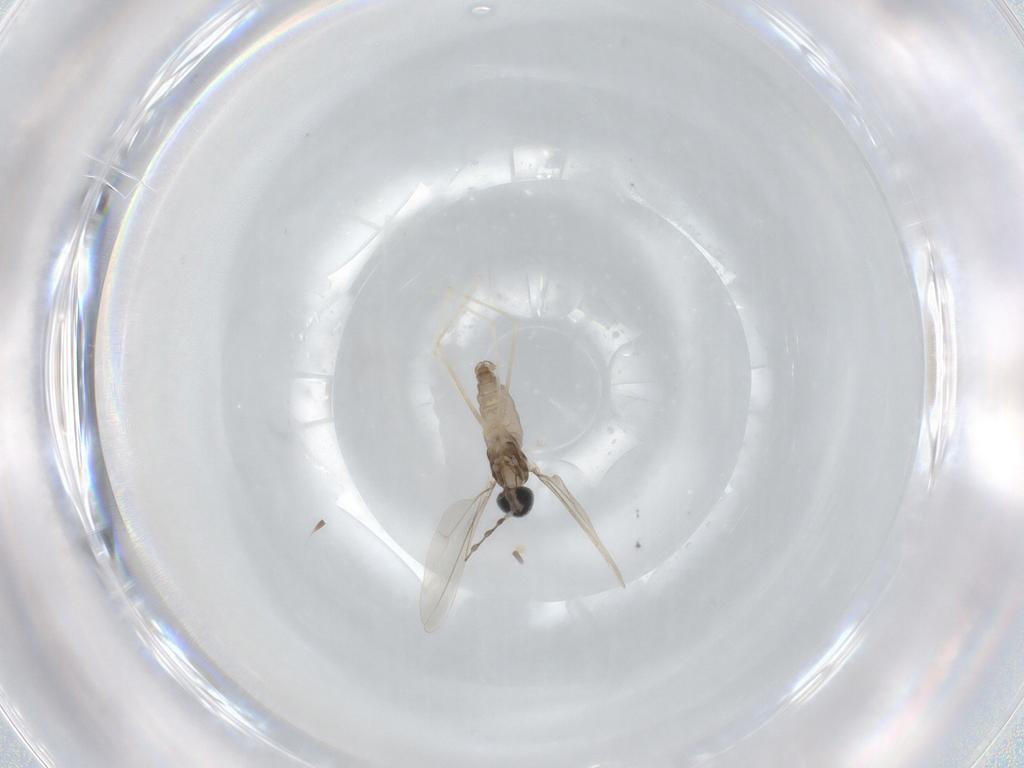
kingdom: Animalia
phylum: Arthropoda
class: Insecta
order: Diptera
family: Cecidomyiidae
